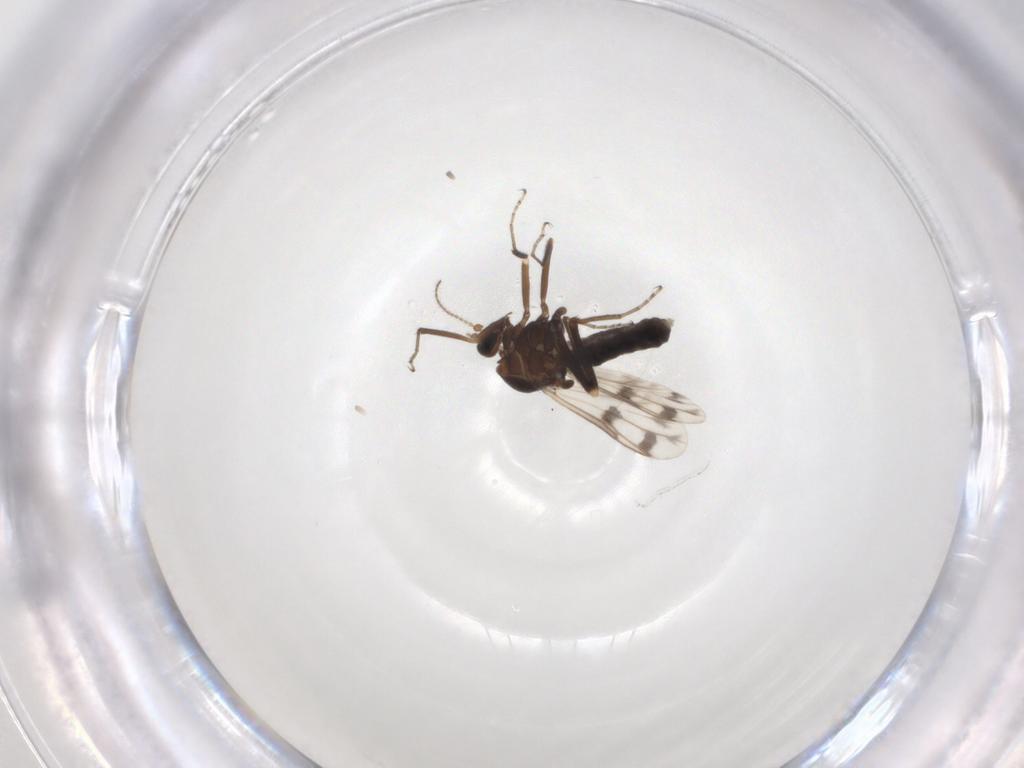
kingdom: Animalia
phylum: Arthropoda
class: Insecta
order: Diptera
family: Ceratopogonidae
